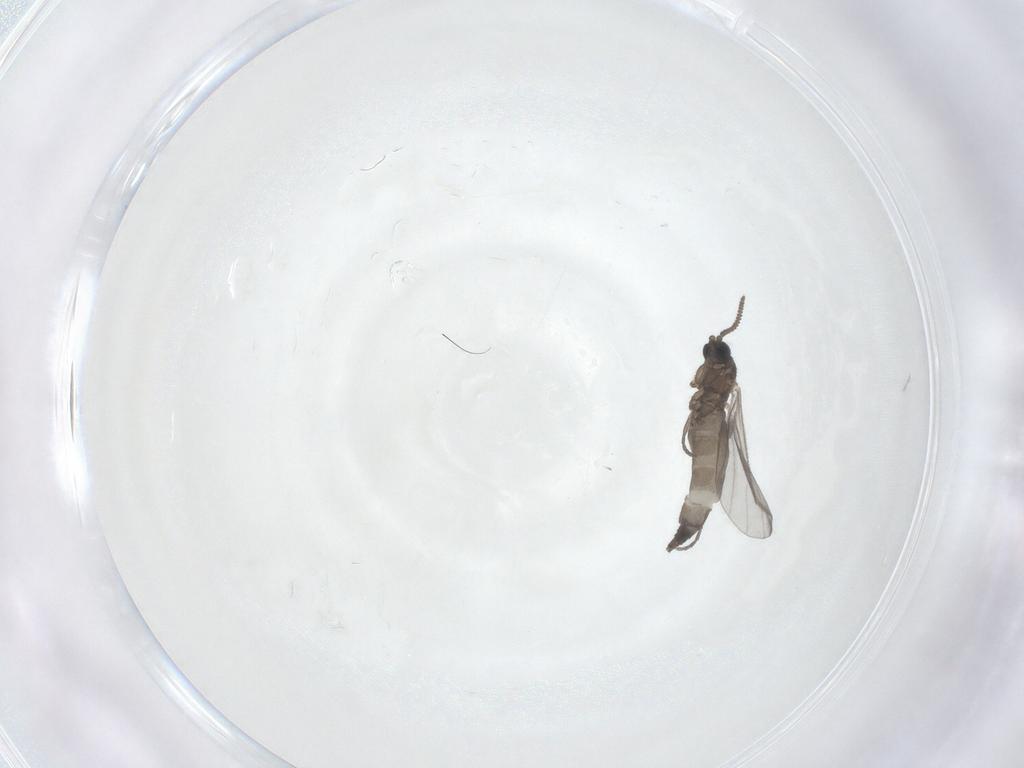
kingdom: Animalia
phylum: Arthropoda
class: Insecta
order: Diptera
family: Sciaridae
